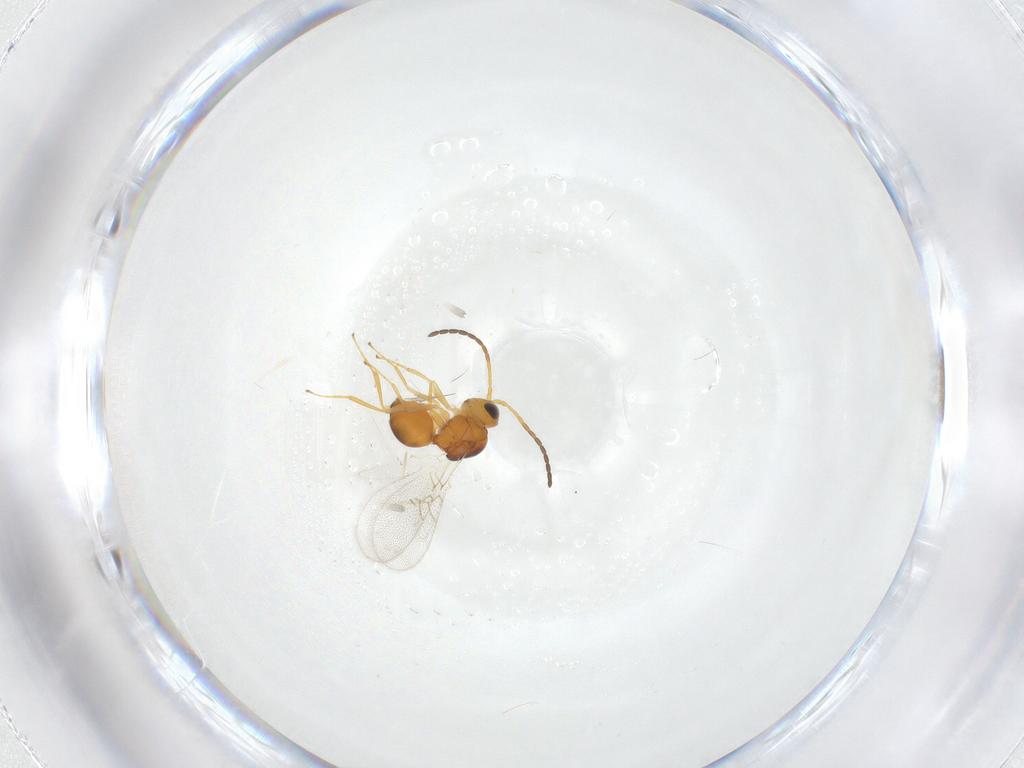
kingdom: Animalia
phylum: Arthropoda
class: Insecta
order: Hymenoptera
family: Figitidae
